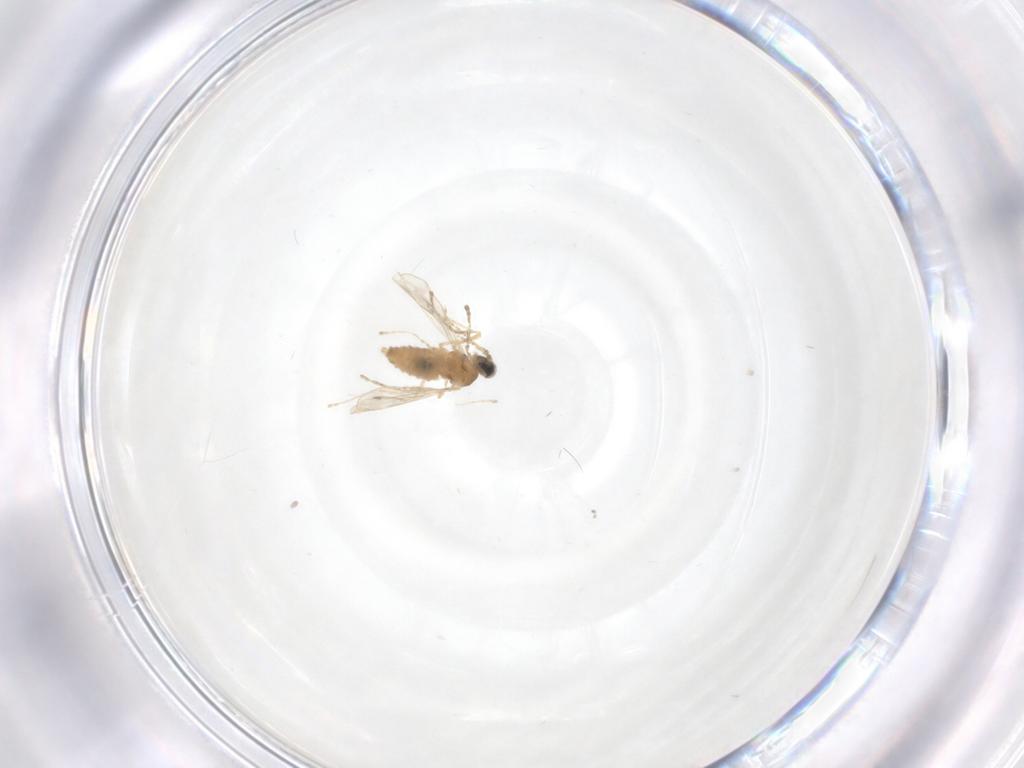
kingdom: Animalia
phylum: Arthropoda
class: Insecta
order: Diptera
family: Cecidomyiidae
